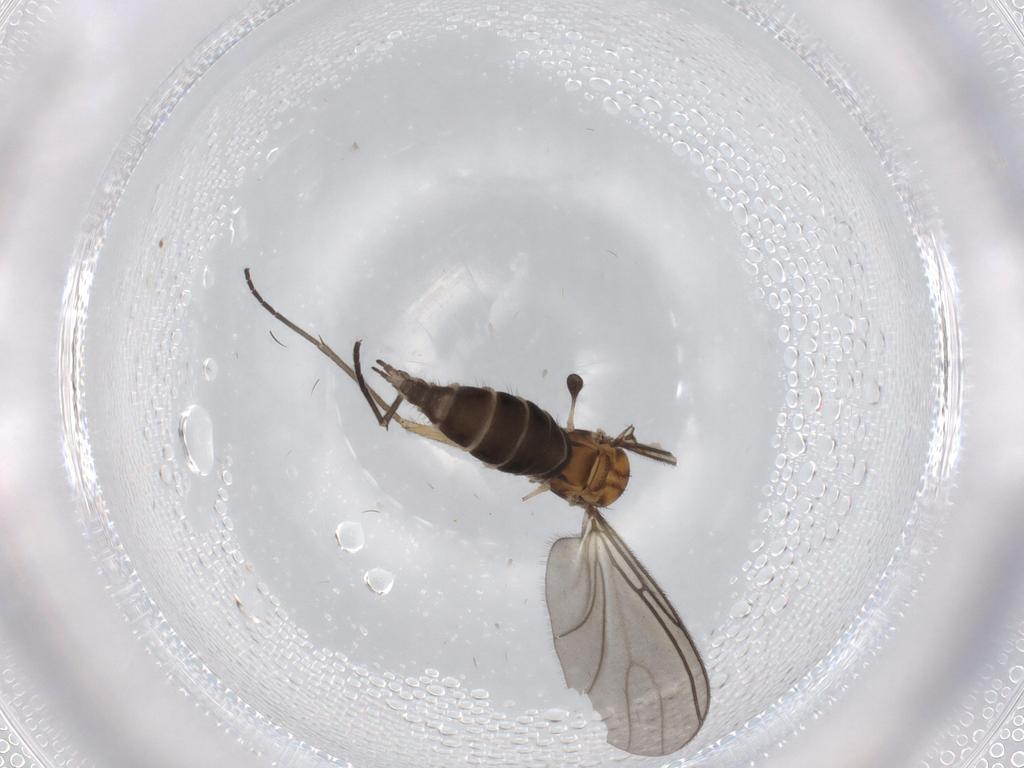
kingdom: Animalia
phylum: Arthropoda
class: Insecta
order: Diptera
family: Sciaridae
